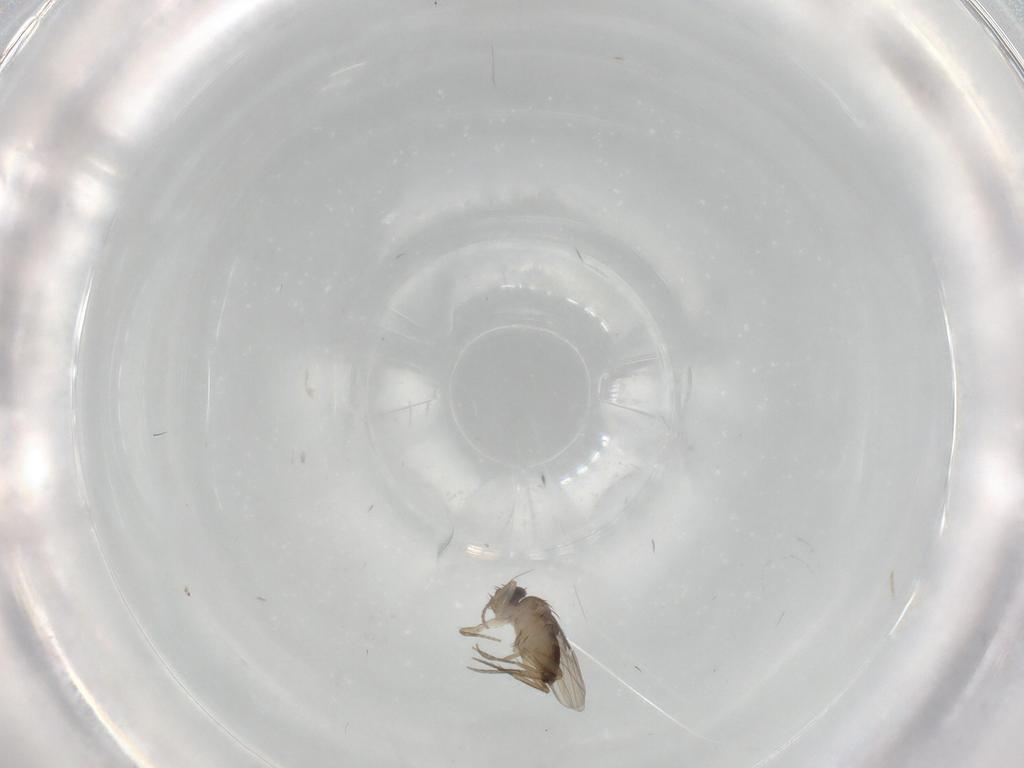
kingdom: Animalia
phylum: Arthropoda
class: Insecta
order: Diptera
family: Phoridae
